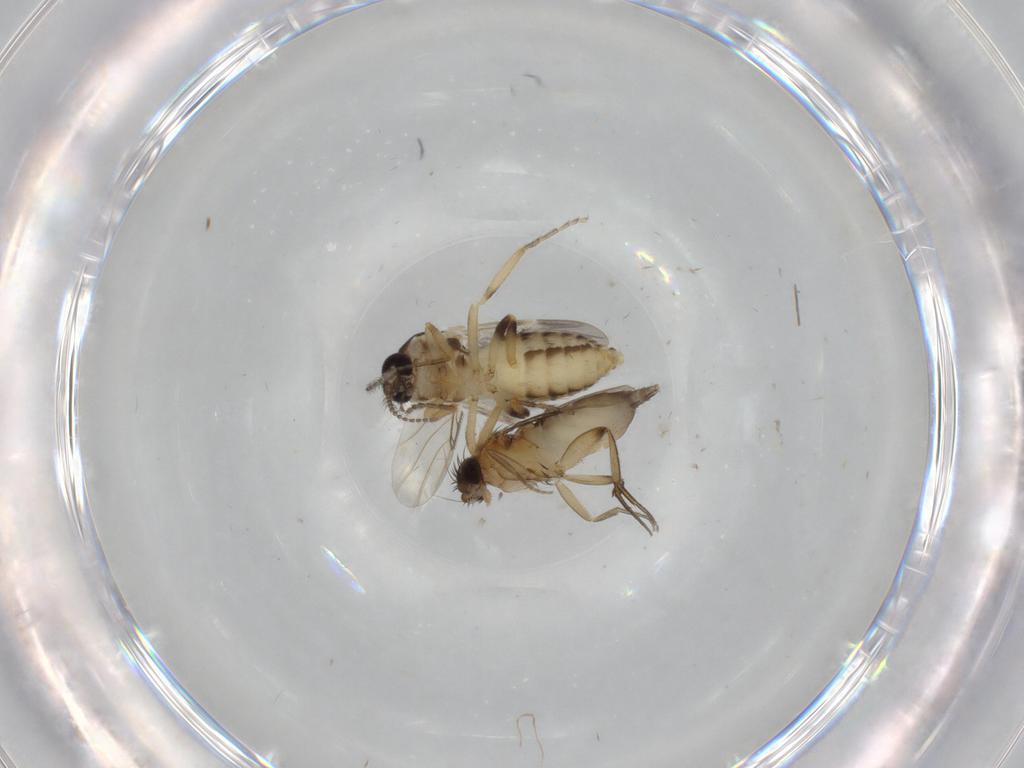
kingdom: Animalia
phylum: Arthropoda
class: Insecta
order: Diptera
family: Ceratopogonidae
